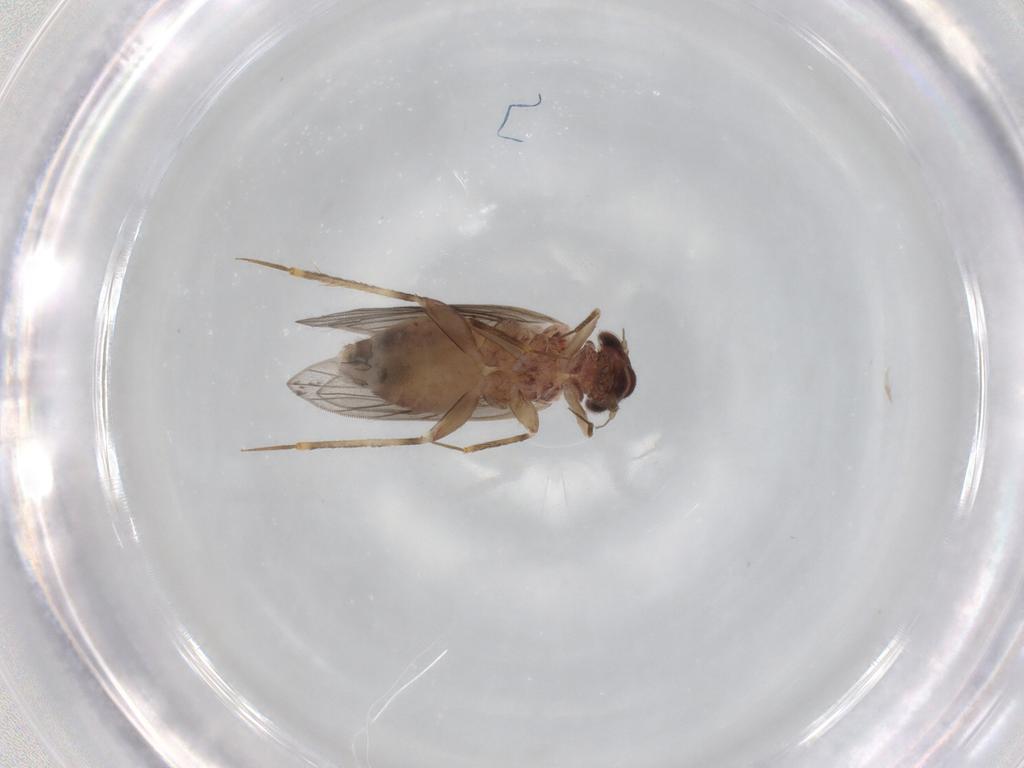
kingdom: Animalia
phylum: Arthropoda
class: Insecta
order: Psocodea
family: Lepidopsocidae
